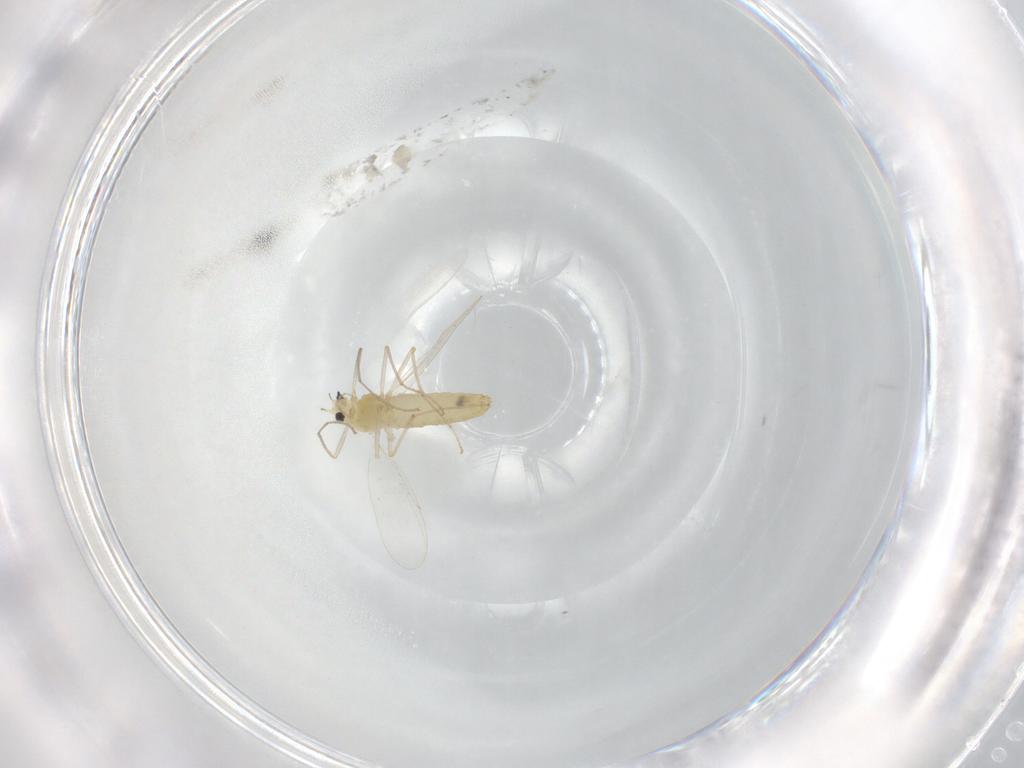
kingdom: Animalia
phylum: Arthropoda
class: Insecta
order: Diptera
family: Chironomidae
